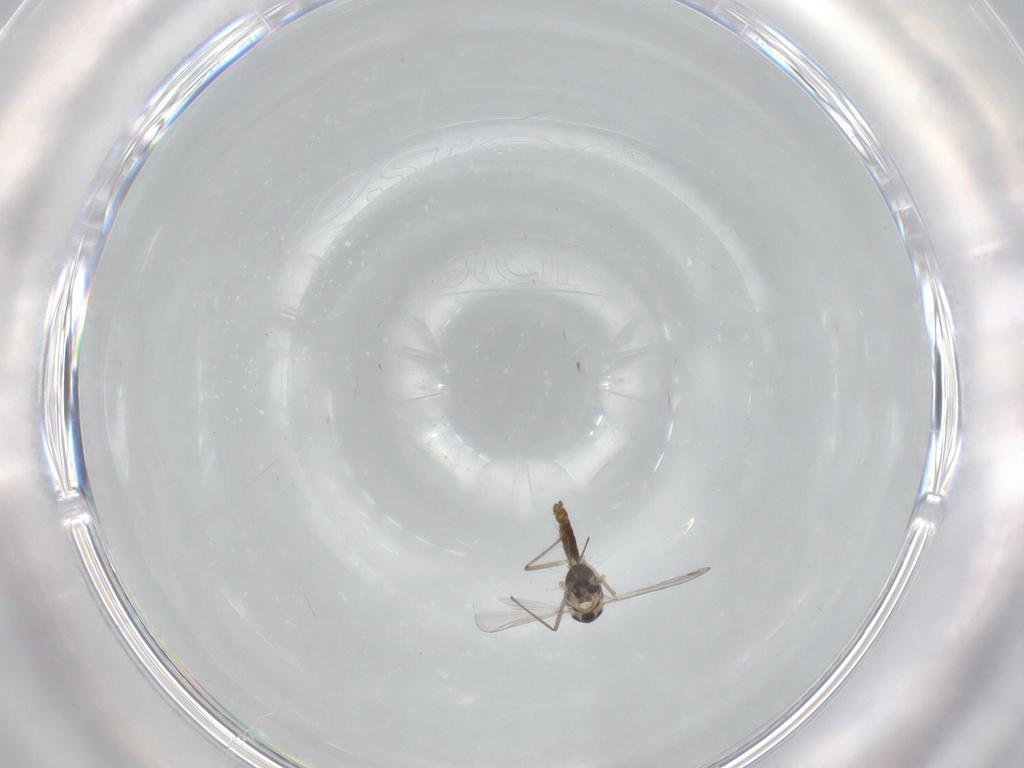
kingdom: Animalia
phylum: Arthropoda
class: Insecta
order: Diptera
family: Chironomidae
